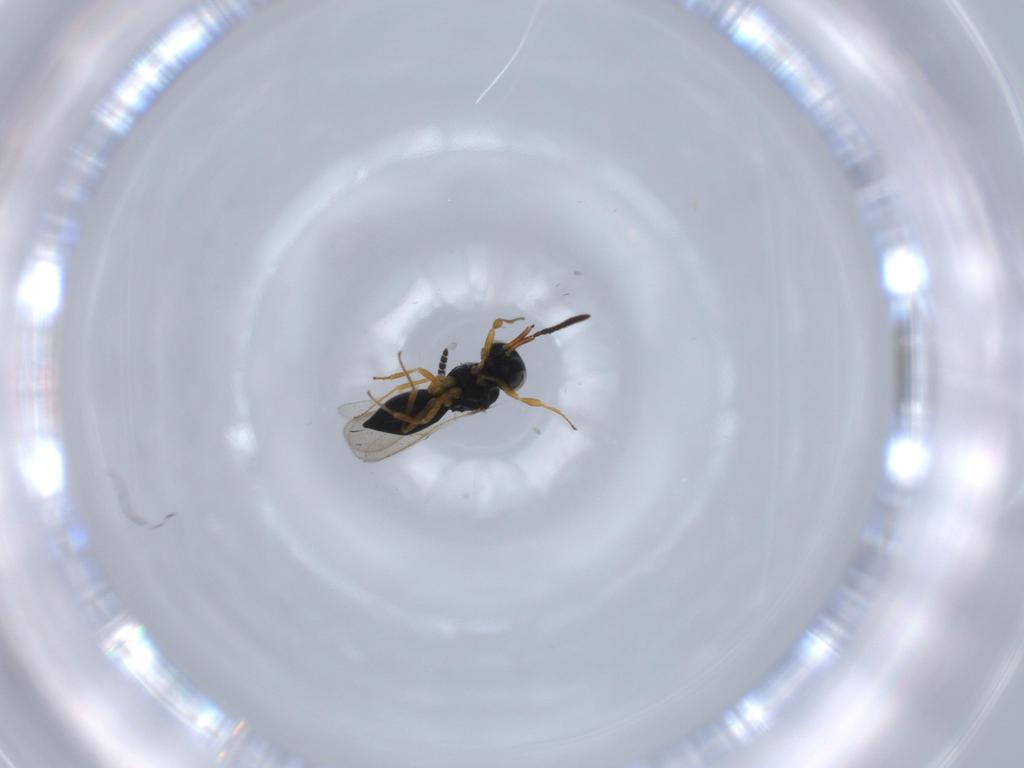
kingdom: Animalia
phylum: Arthropoda
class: Insecta
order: Hymenoptera
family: Scelionidae
